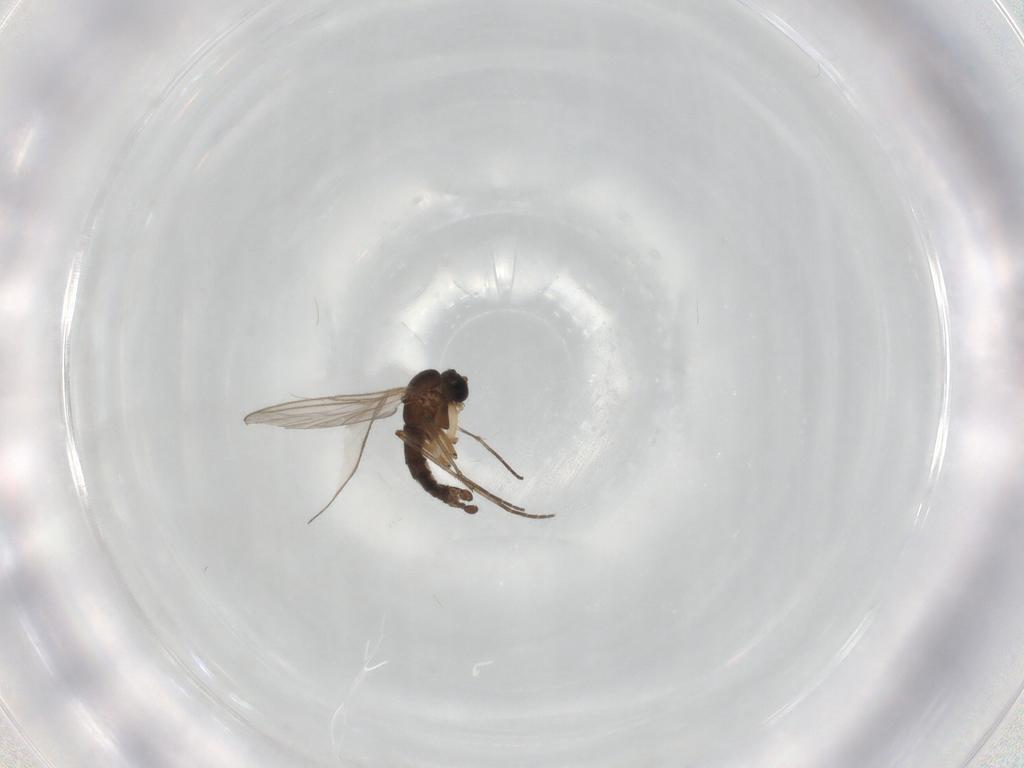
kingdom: Animalia
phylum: Arthropoda
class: Insecta
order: Diptera
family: Sciaridae
